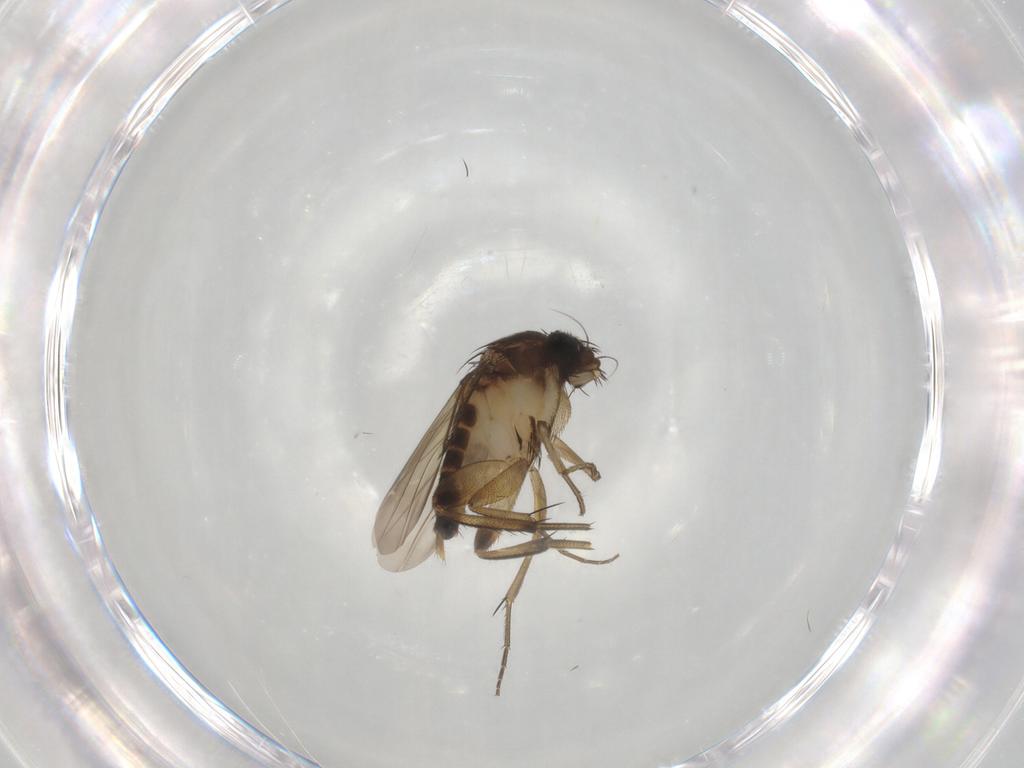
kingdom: Animalia
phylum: Arthropoda
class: Insecta
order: Diptera
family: Phoridae
